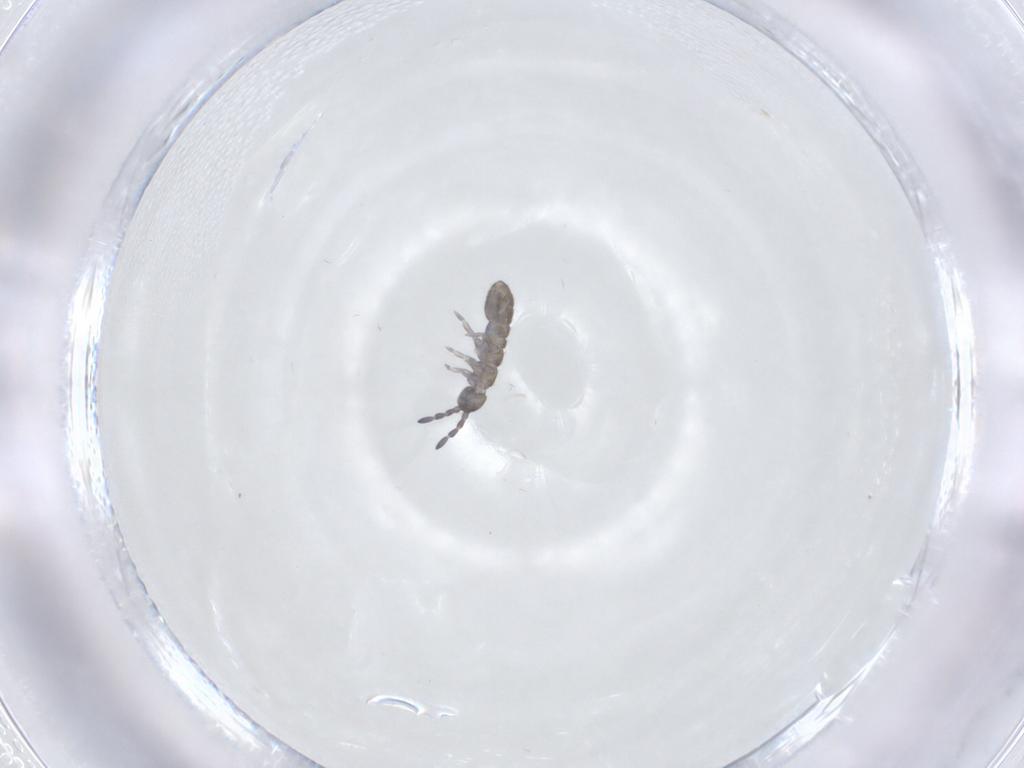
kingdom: Animalia
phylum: Arthropoda
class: Collembola
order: Entomobryomorpha
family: Entomobryidae
